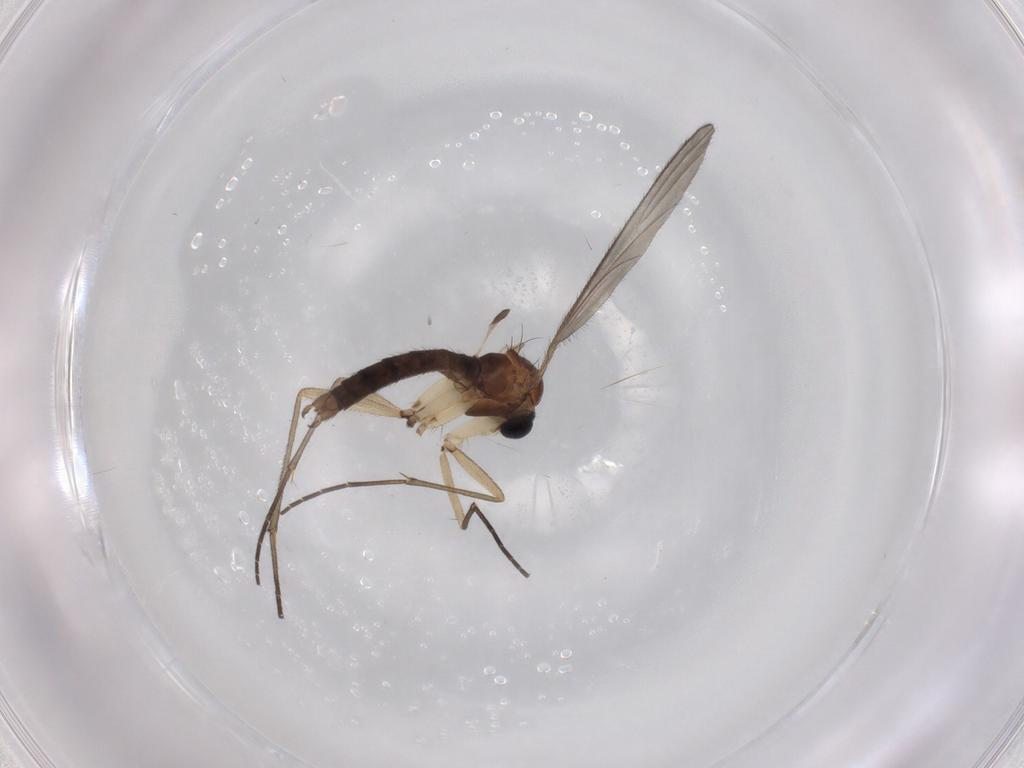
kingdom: Animalia
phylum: Arthropoda
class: Insecta
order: Diptera
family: Sciaridae
